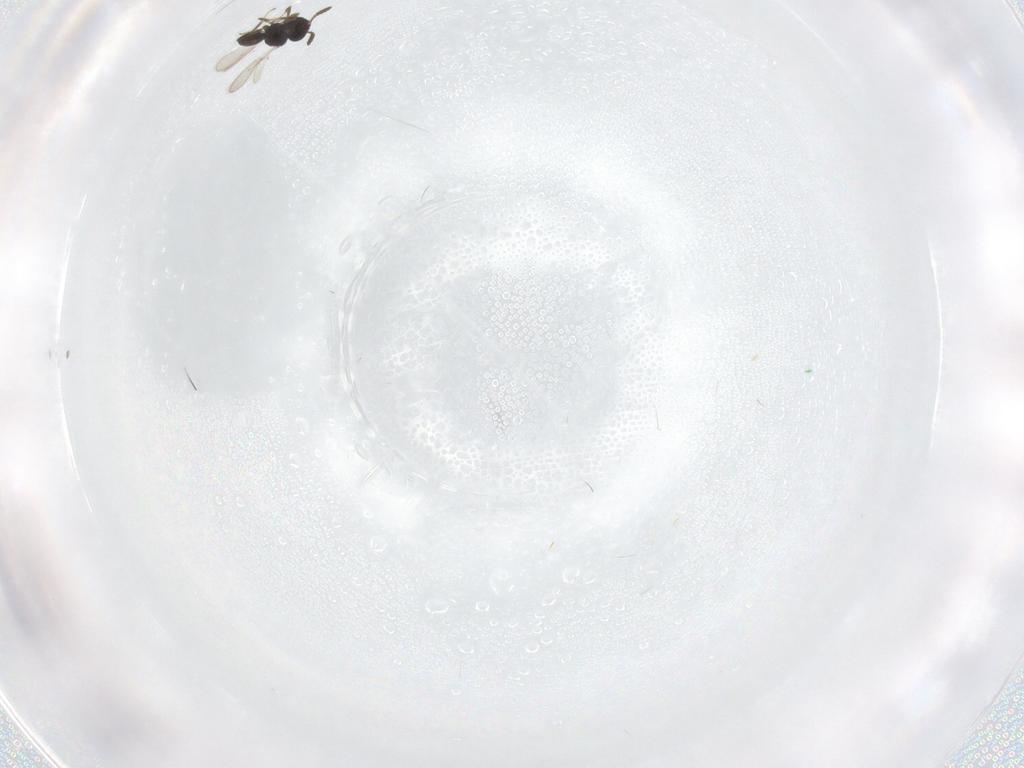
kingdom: Animalia
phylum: Arthropoda
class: Insecta
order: Hymenoptera
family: Scelionidae
